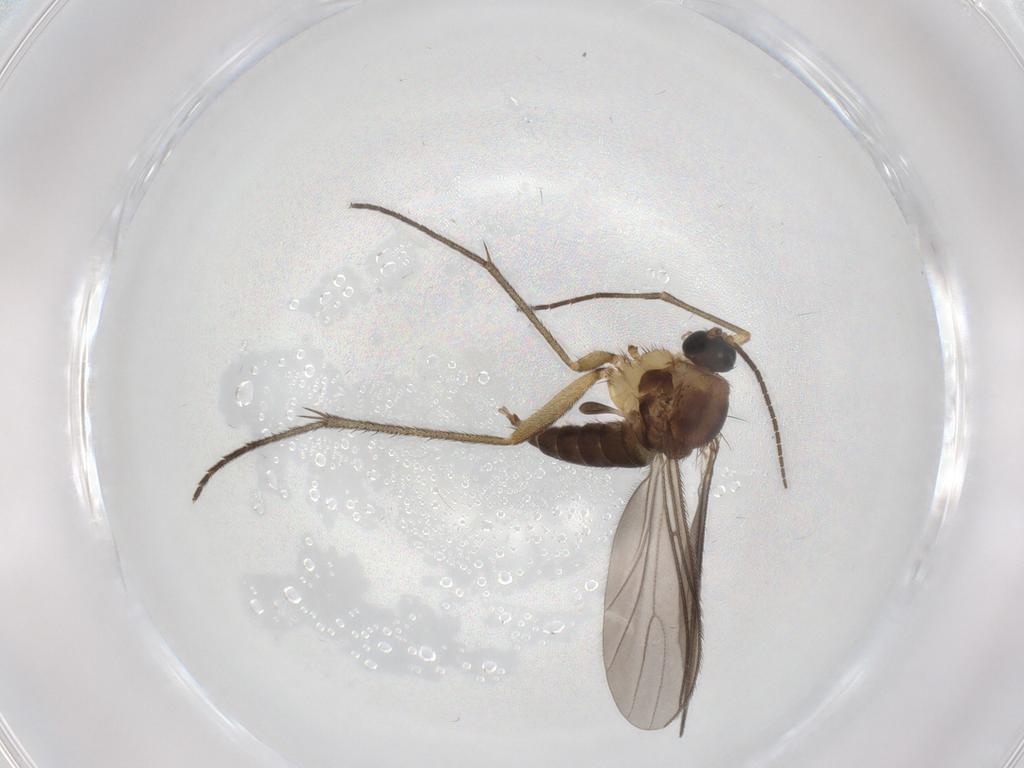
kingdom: Animalia
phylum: Arthropoda
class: Insecta
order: Diptera
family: Sciaridae
